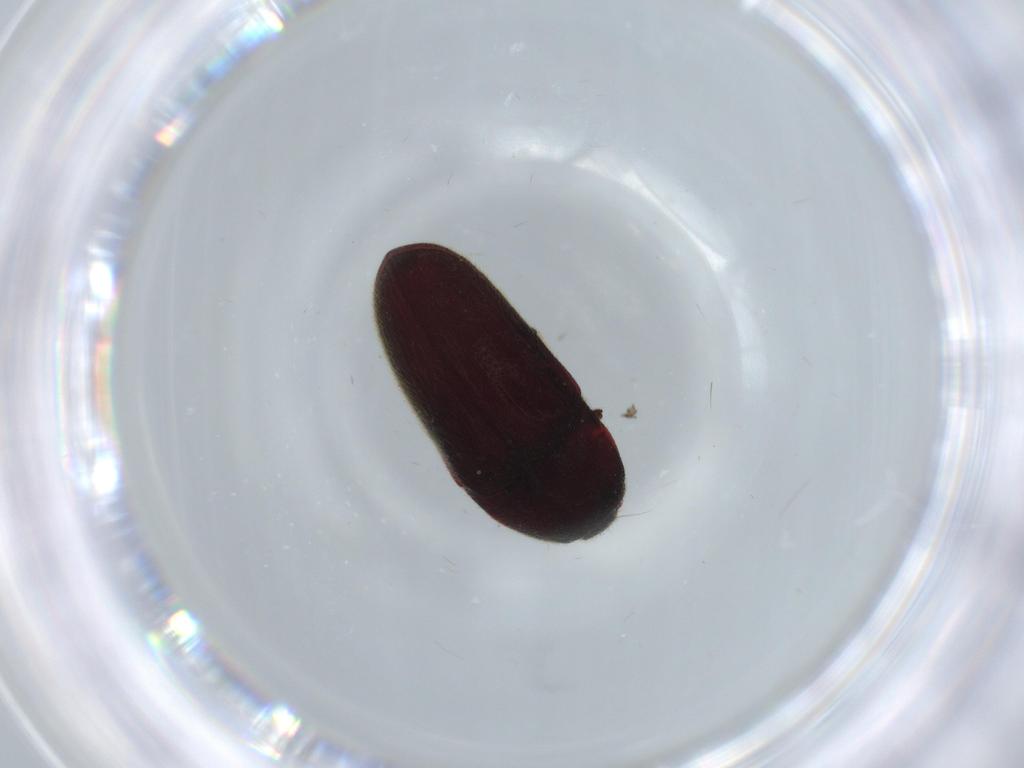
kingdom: Animalia
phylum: Arthropoda
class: Insecta
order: Coleoptera
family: Throscidae
